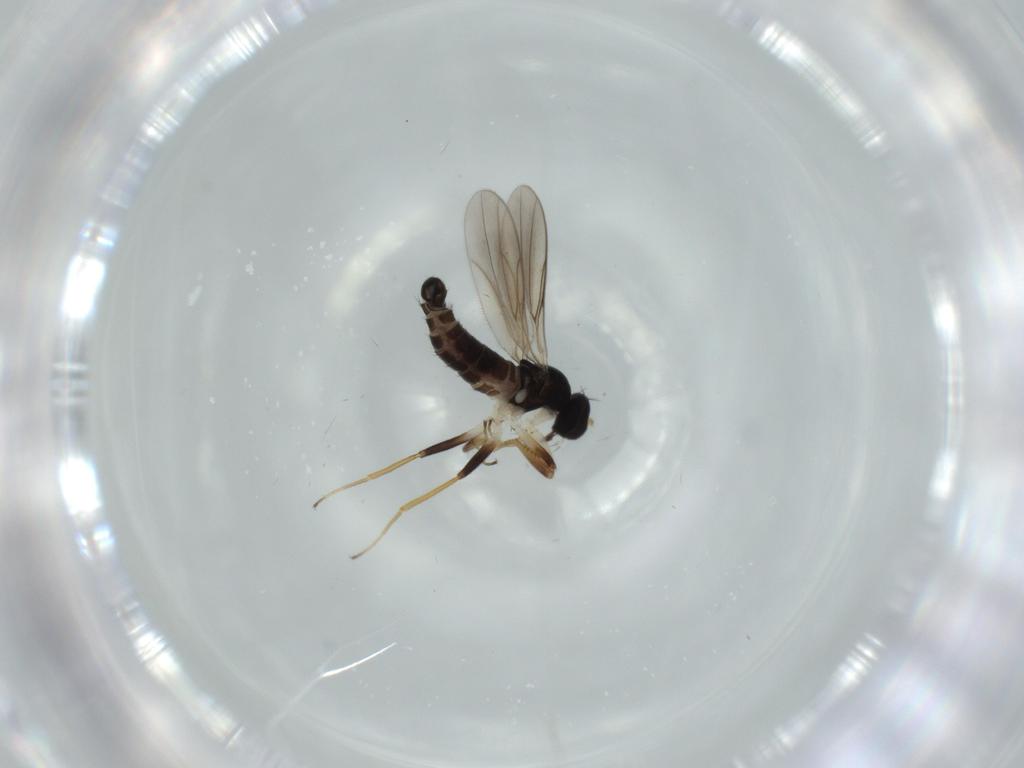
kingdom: Animalia
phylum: Arthropoda
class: Insecta
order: Diptera
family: Hybotidae
